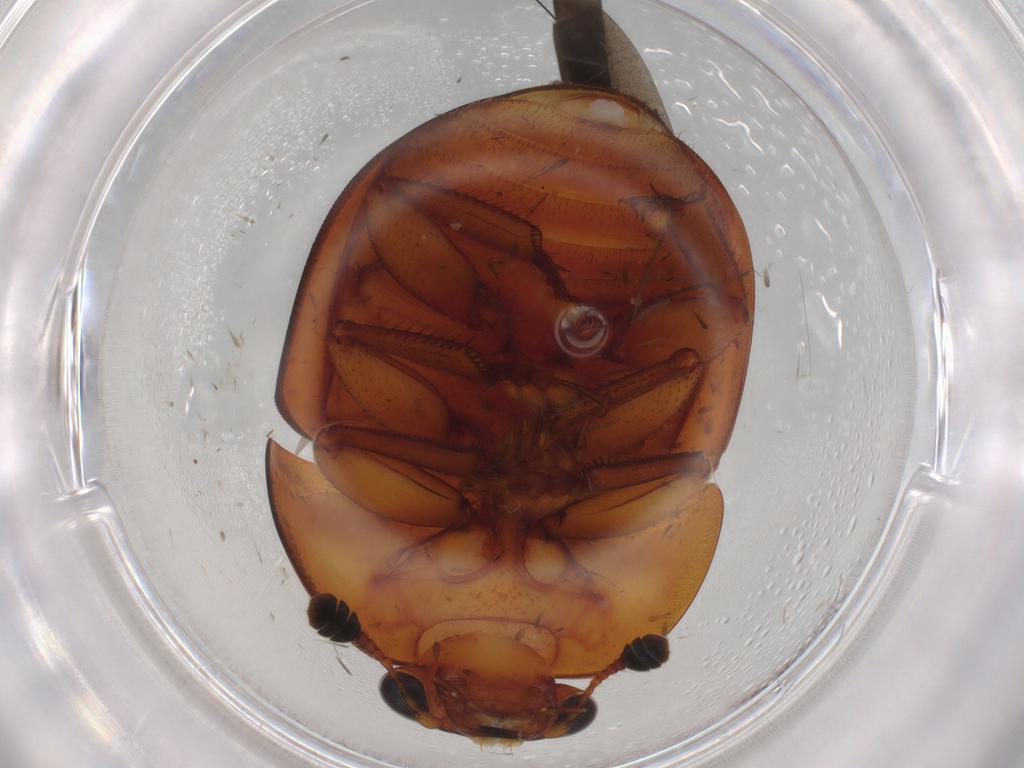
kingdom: Animalia
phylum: Arthropoda
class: Insecta
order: Coleoptera
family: Nitidulidae
